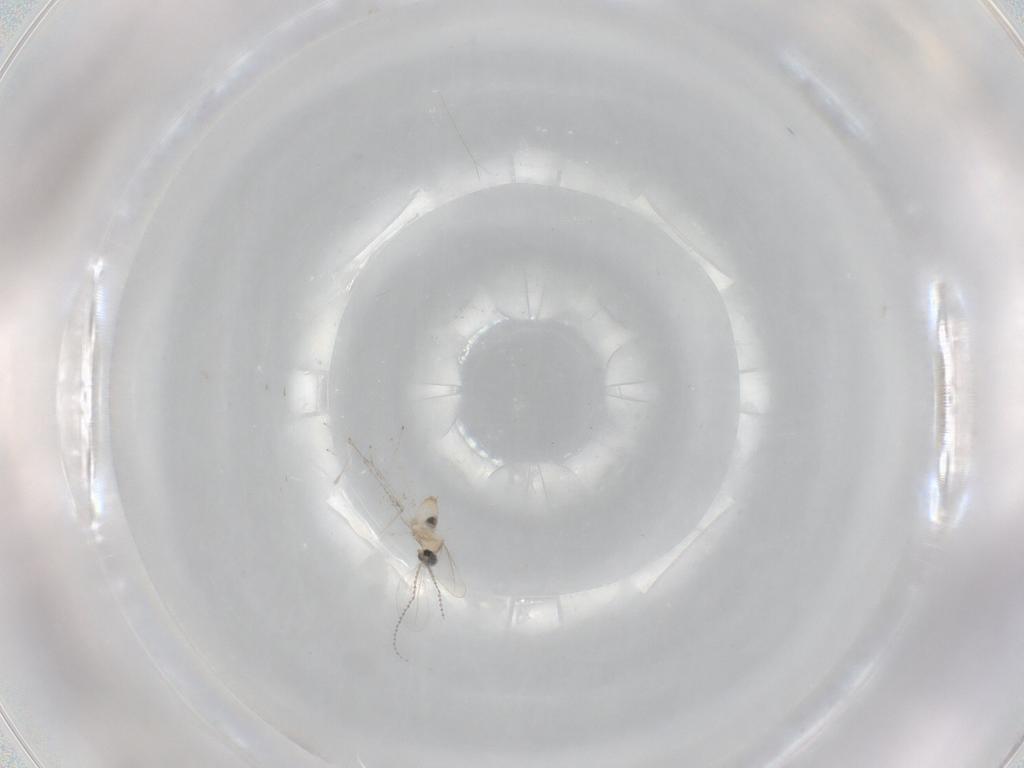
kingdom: Animalia
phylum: Arthropoda
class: Insecta
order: Diptera
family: Cecidomyiidae
